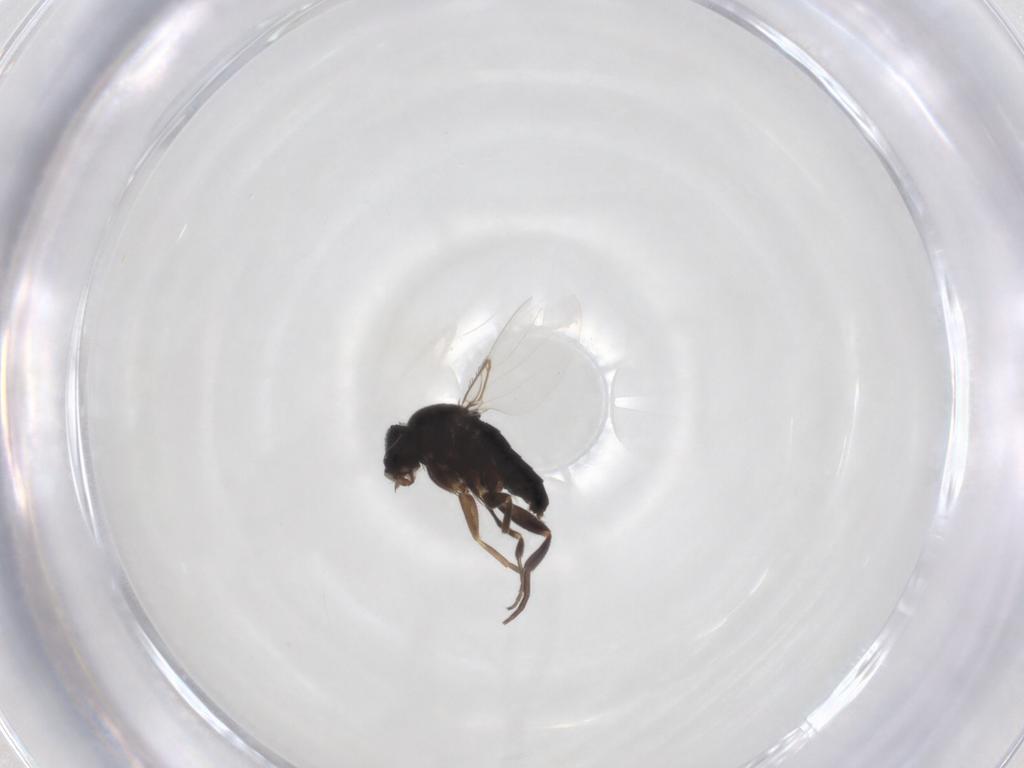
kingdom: Animalia
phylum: Arthropoda
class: Insecta
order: Diptera
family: Phoridae
